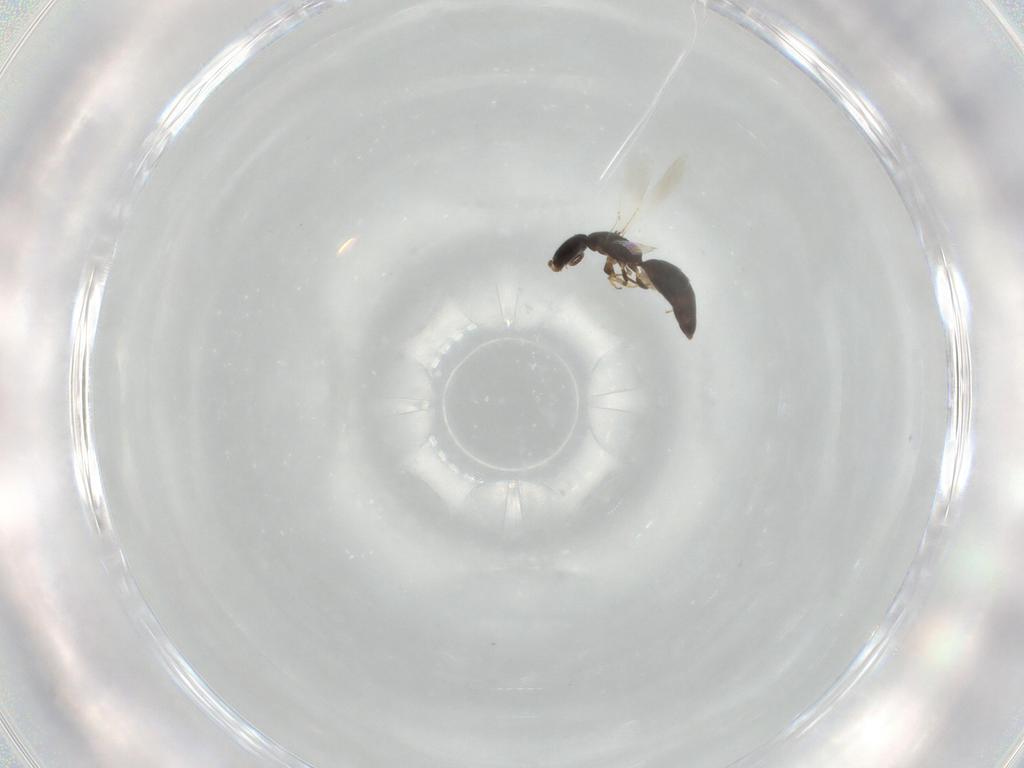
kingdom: Animalia
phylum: Arthropoda
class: Insecta
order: Hymenoptera
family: Bethylidae
